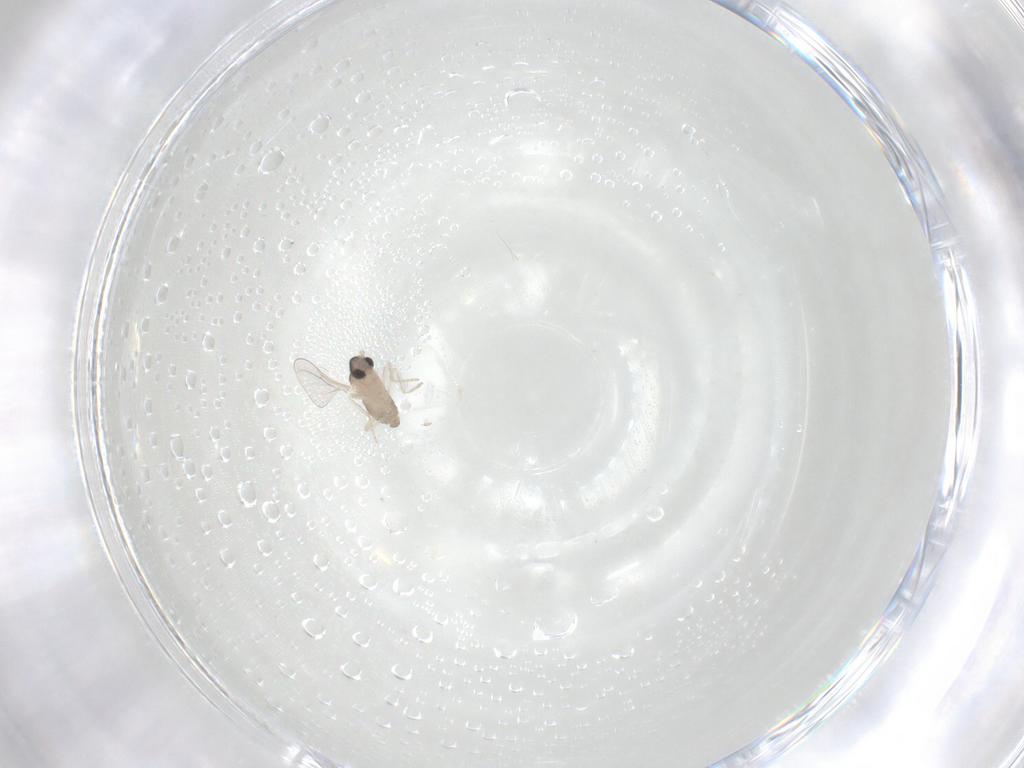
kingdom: Animalia
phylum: Arthropoda
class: Insecta
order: Diptera
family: Cecidomyiidae
